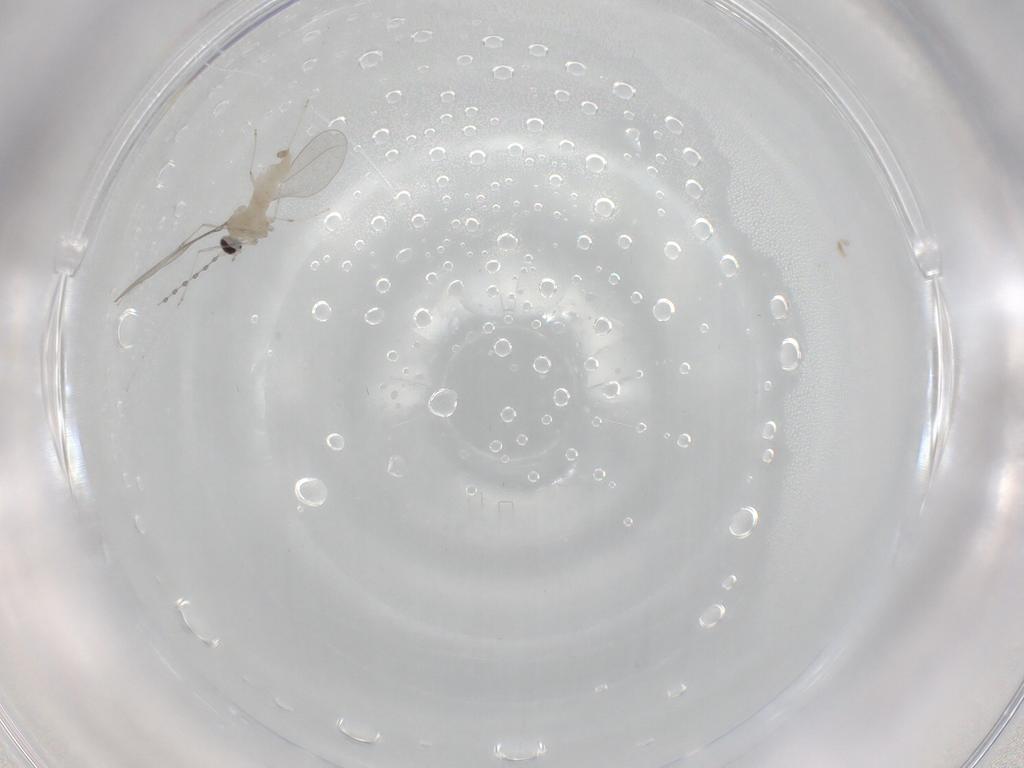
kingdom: Animalia
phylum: Arthropoda
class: Insecta
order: Diptera
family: Cecidomyiidae
